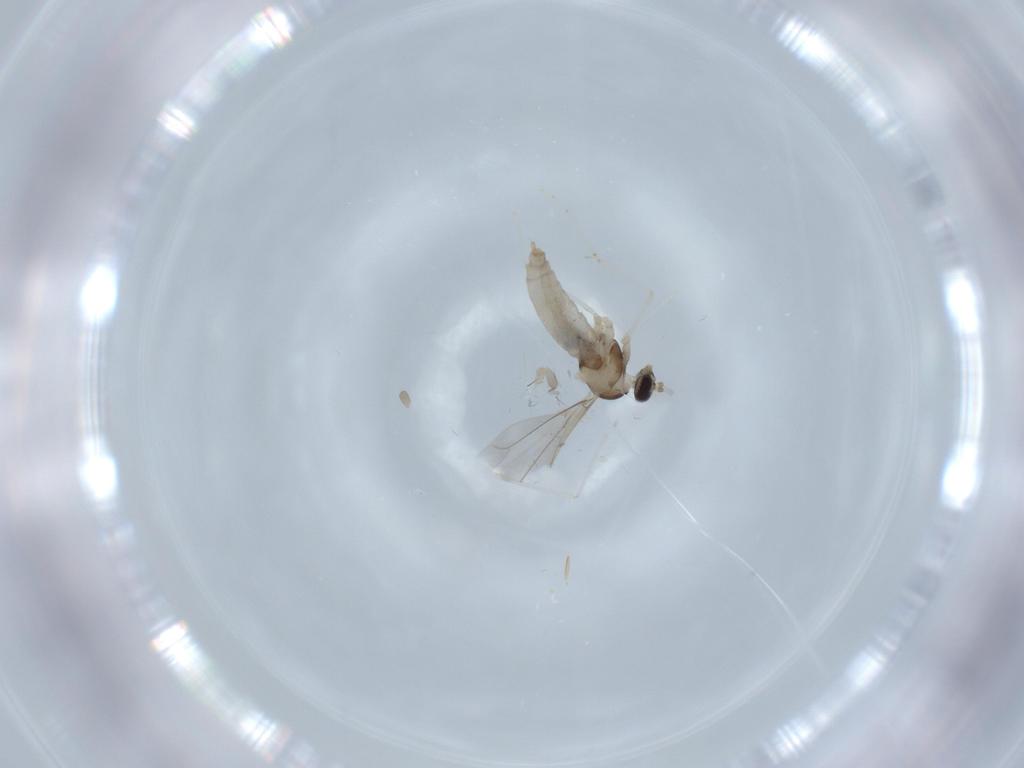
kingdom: Animalia
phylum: Arthropoda
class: Insecta
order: Diptera
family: Cecidomyiidae
